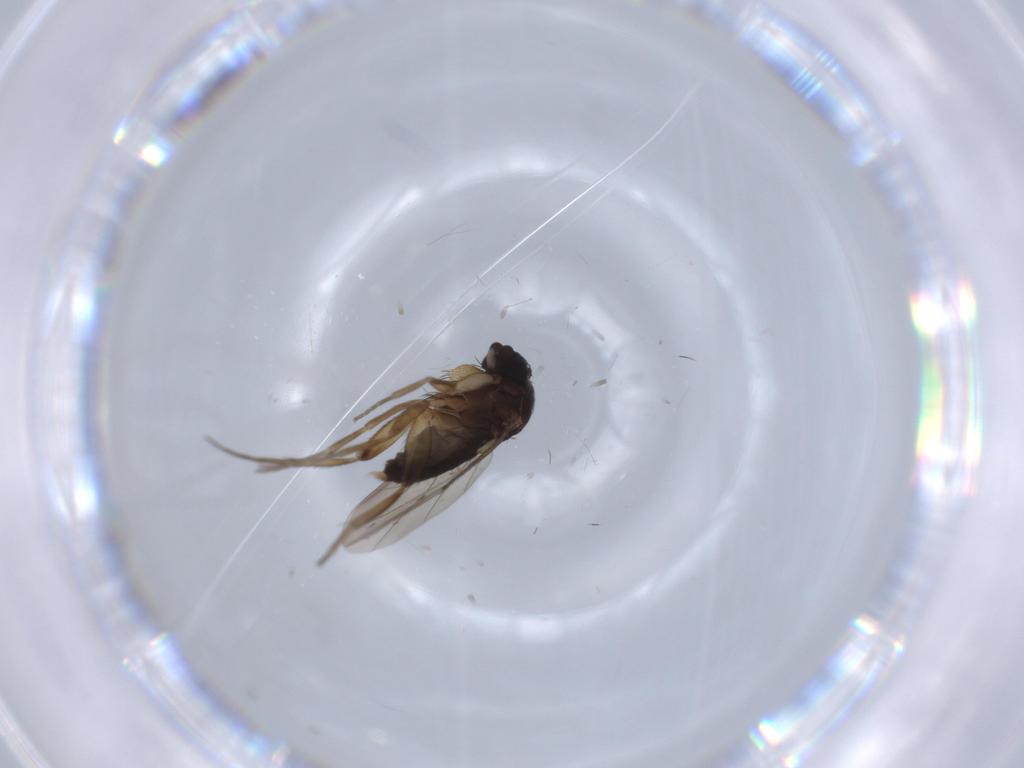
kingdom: Animalia
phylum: Arthropoda
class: Insecta
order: Diptera
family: Phoridae
